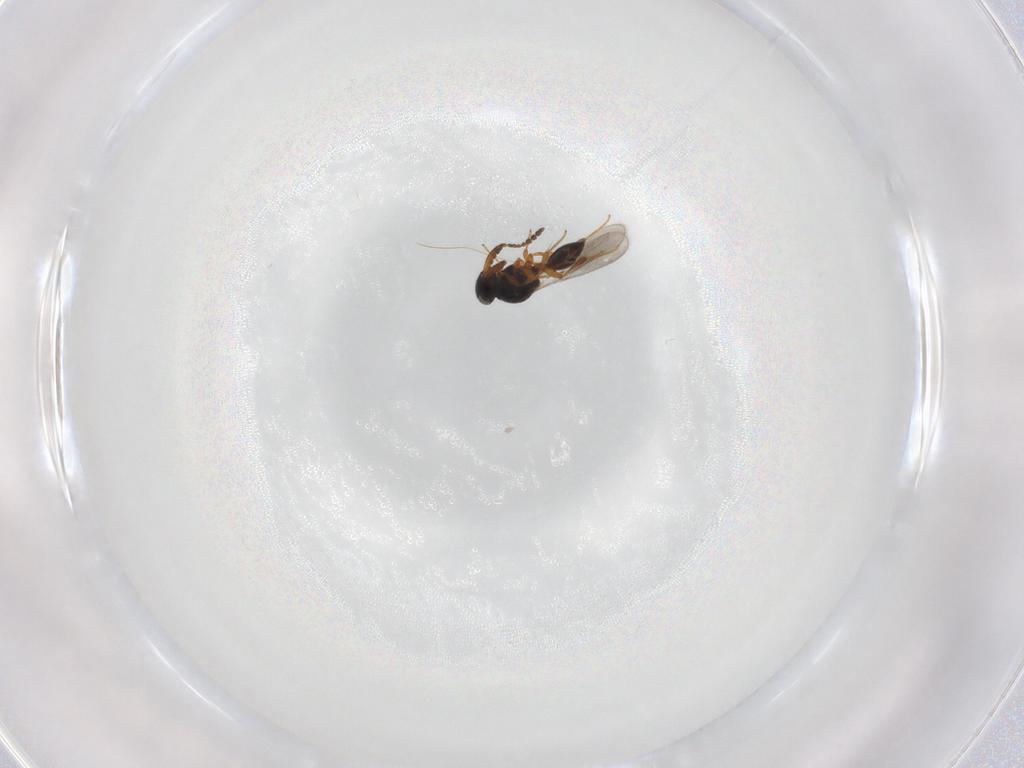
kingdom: Animalia
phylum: Arthropoda
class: Insecta
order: Hymenoptera
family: Platygastridae
